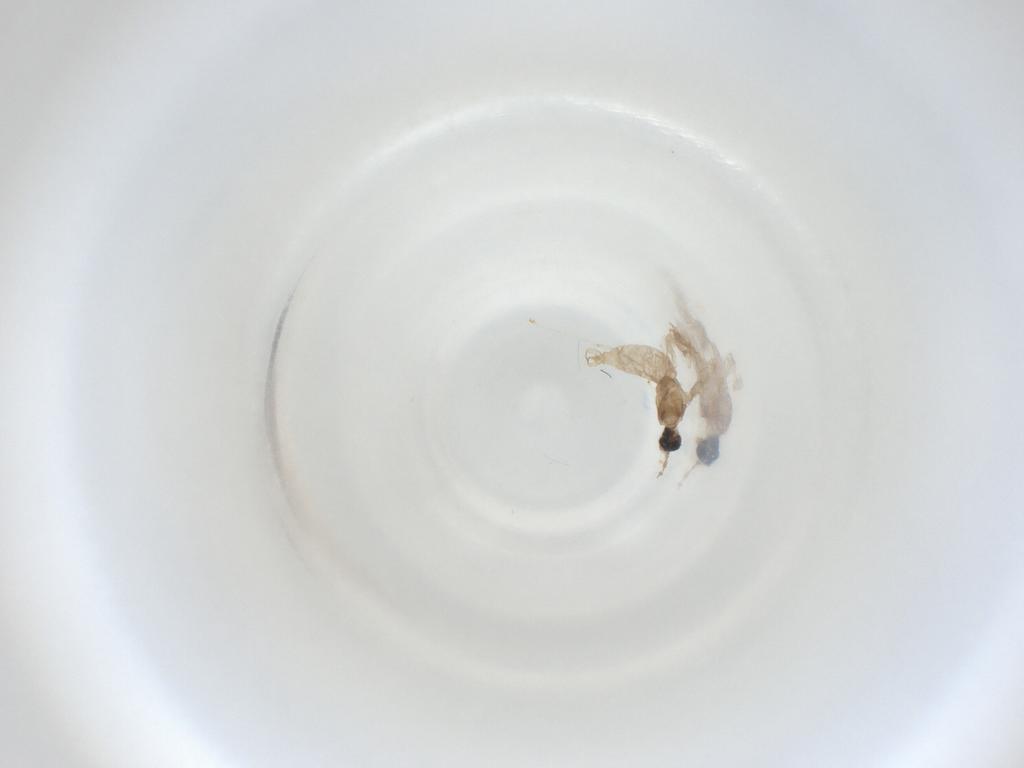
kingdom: Animalia
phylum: Arthropoda
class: Insecta
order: Diptera
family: Cecidomyiidae
